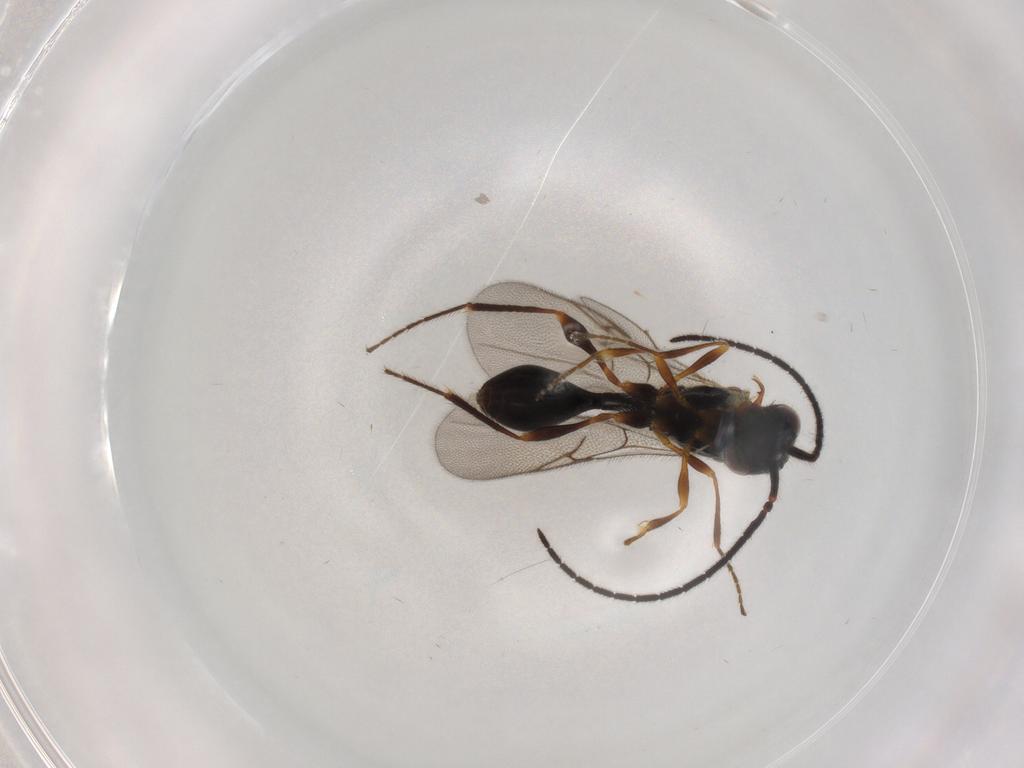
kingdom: Animalia
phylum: Arthropoda
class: Insecta
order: Hymenoptera
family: Diapriidae
